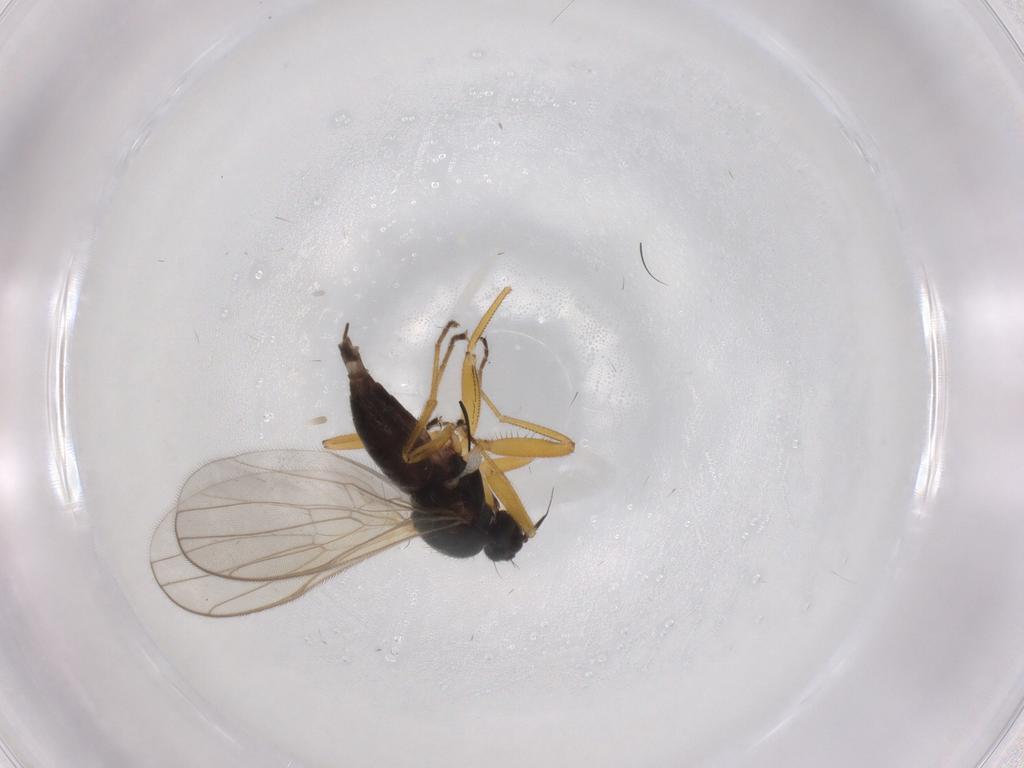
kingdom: Animalia
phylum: Arthropoda
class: Insecta
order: Diptera
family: Hybotidae
